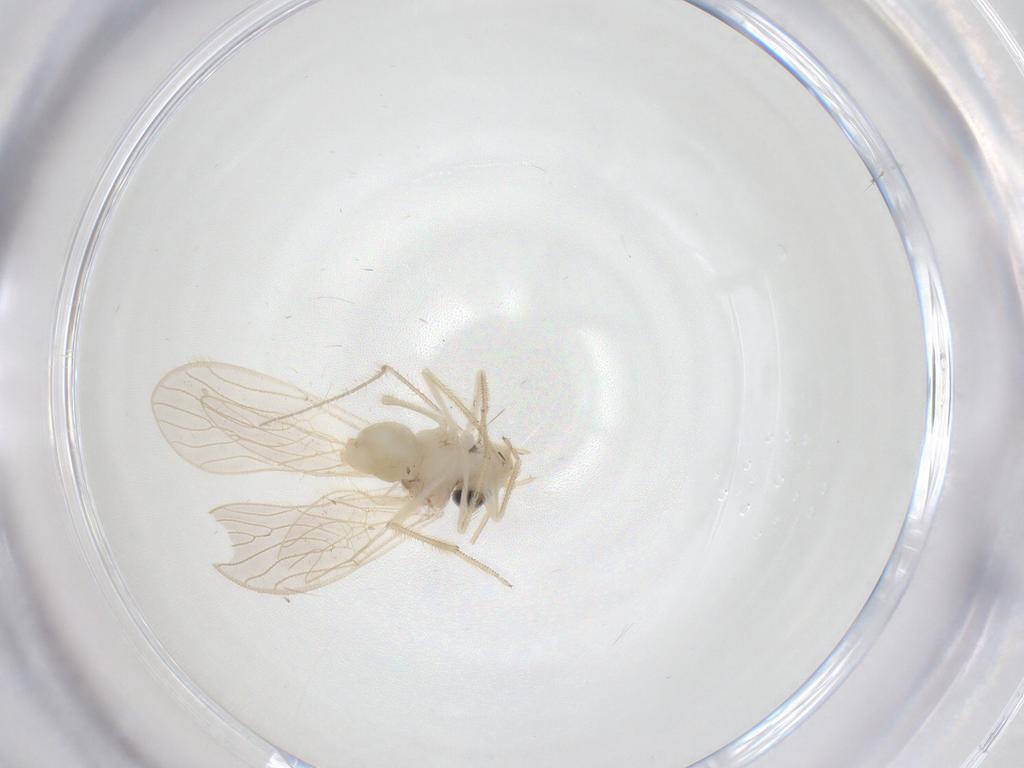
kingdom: Animalia
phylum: Arthropoda
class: Insecta
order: Psocodea
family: Cladiopsocidae
